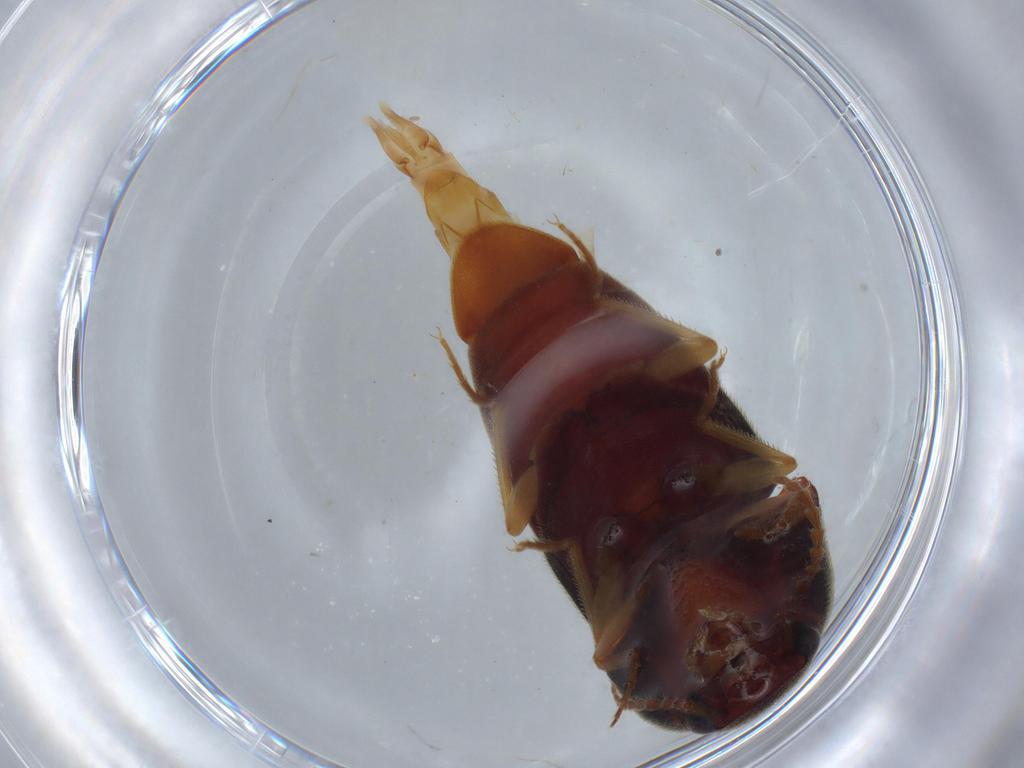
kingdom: Animalia
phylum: Arthropoda
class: Insecta
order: Coleoptera
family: Elateridae
